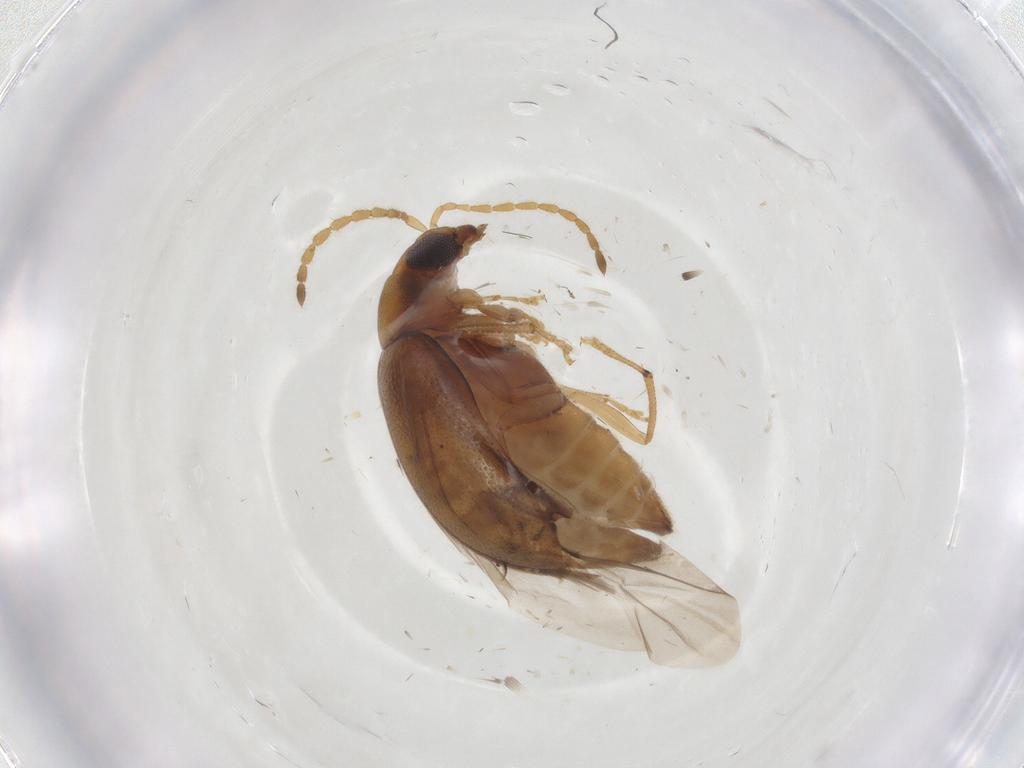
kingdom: Animalia
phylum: Arthropoda
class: Insecta
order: Coleoptera
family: Chrysomelidae
